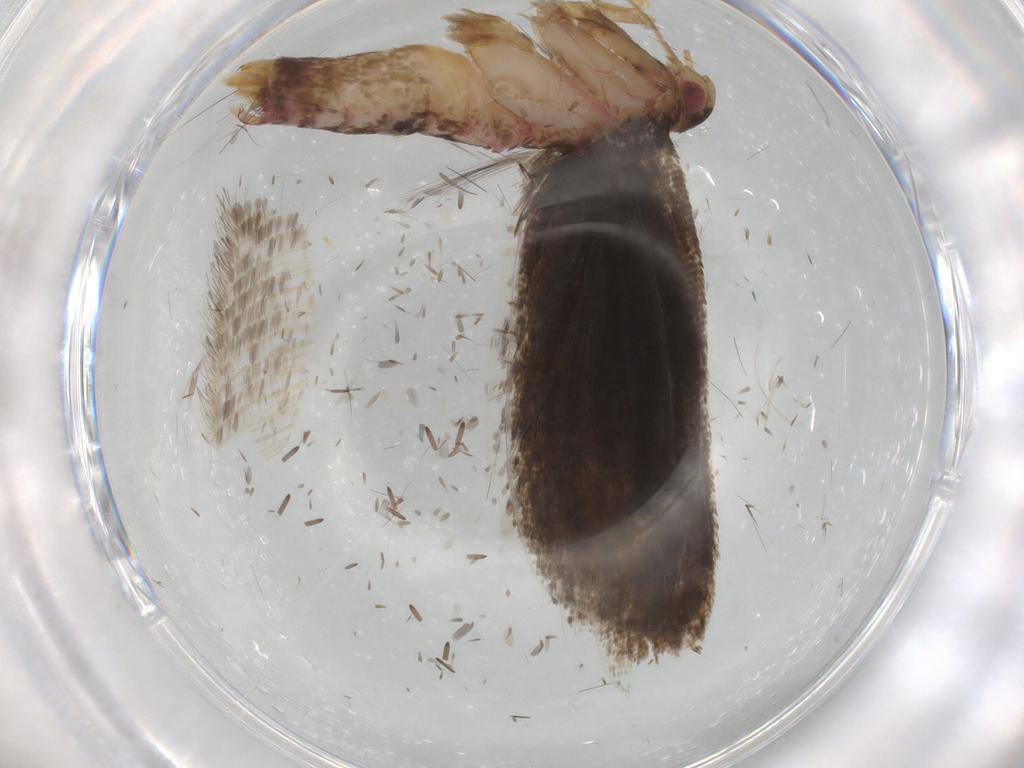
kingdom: Animalia
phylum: Arthropoda
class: Insecta
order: Lepidoptera
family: Gelechiidae
